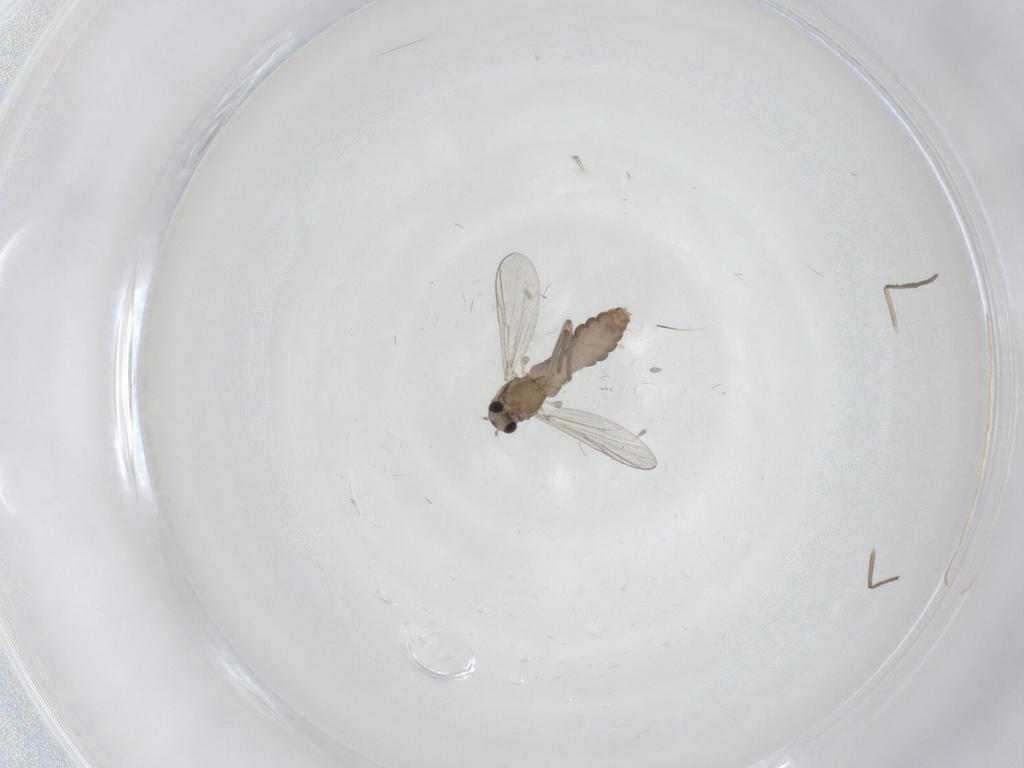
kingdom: Animalia
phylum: Arthropoda
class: Insecta
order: Diptera
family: Chironomidae
